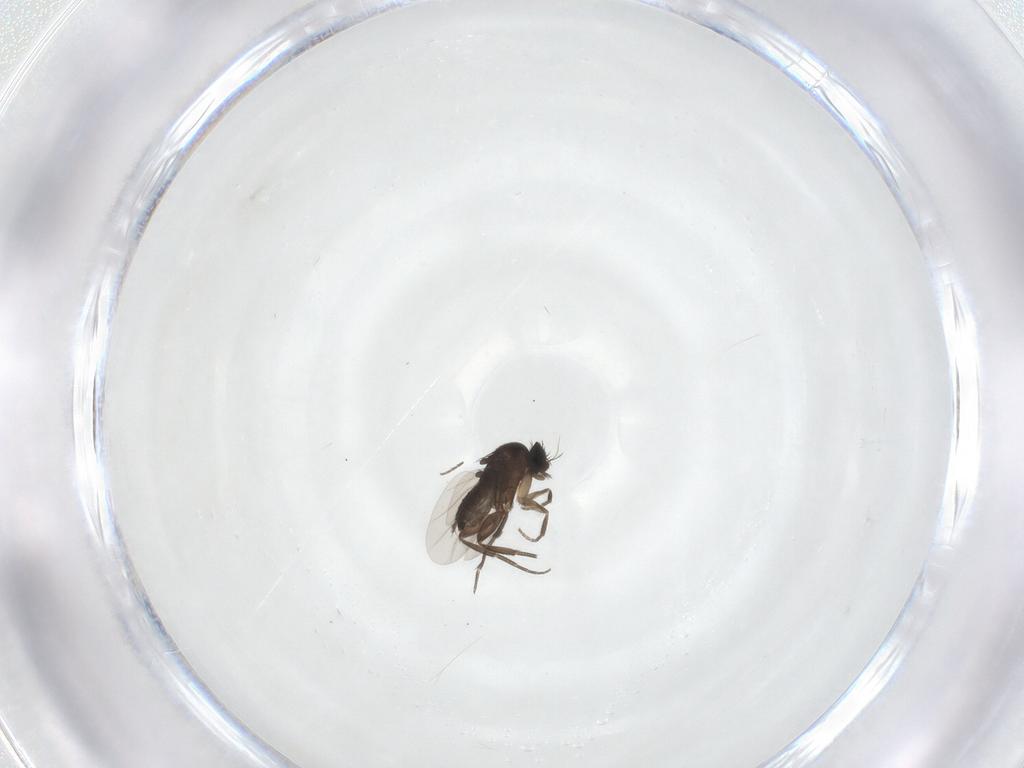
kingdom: Animalia
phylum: Arthropoda
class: Insecta
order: Diptera
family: Phoridae
